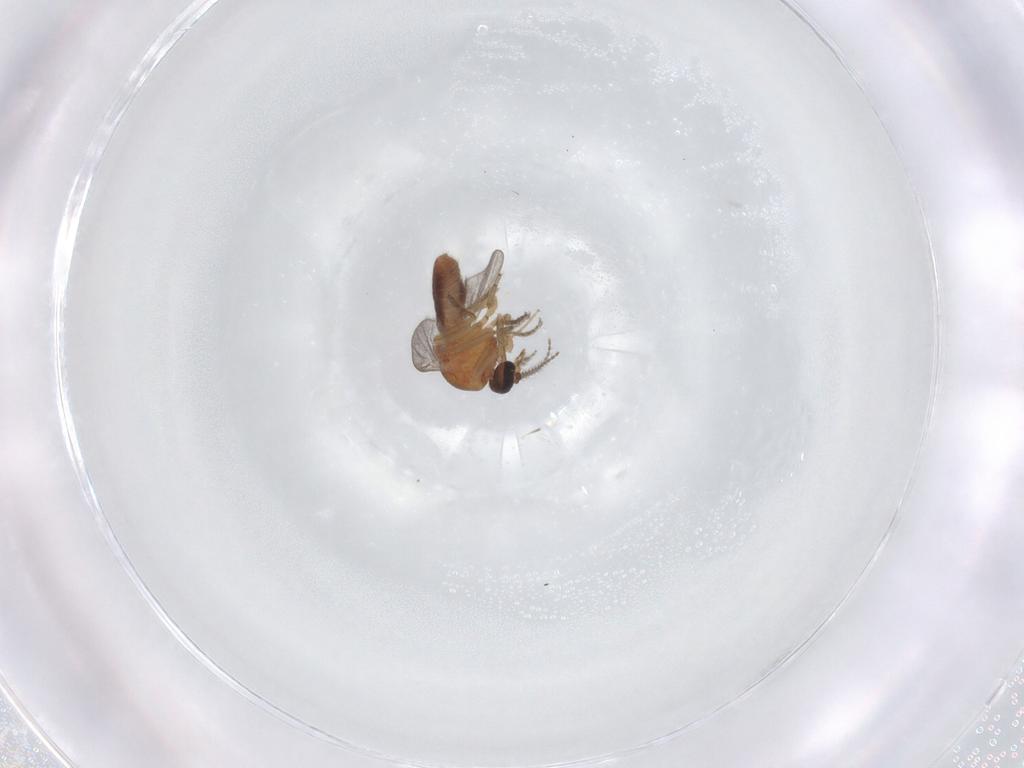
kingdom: Animalia
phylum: Arthropoda
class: Insecta
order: Diptera
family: Ceratopogonidae
